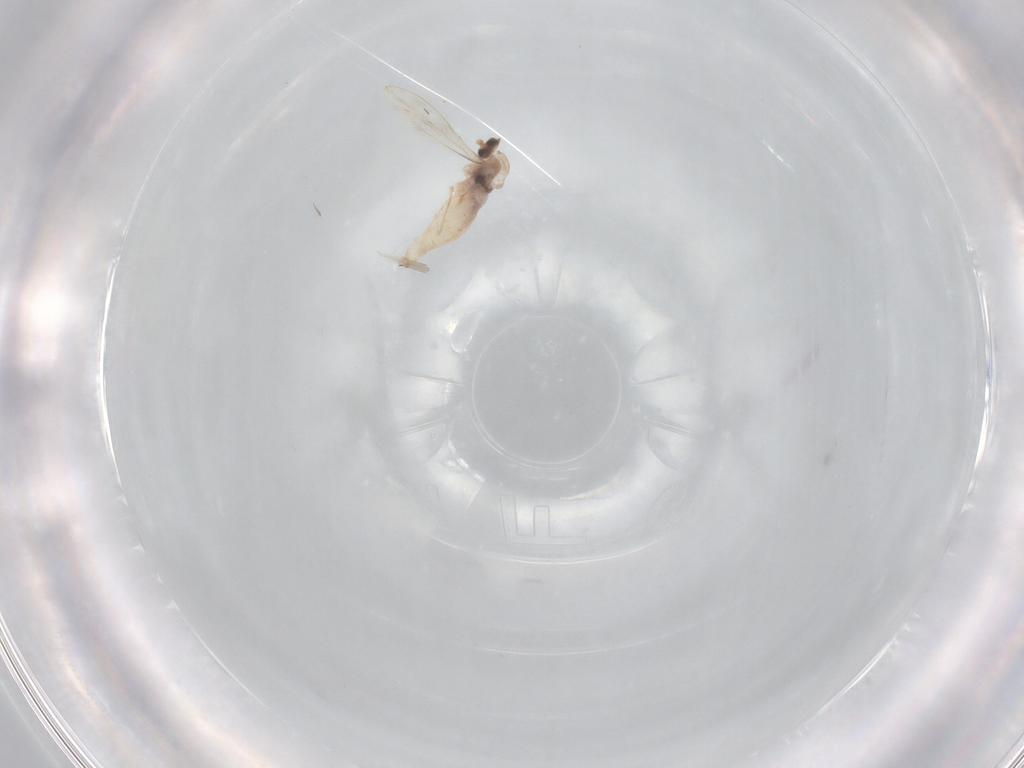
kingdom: Animalia
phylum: Arthropoda
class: Insecta
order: Diptera
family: Cecidomyiidae
